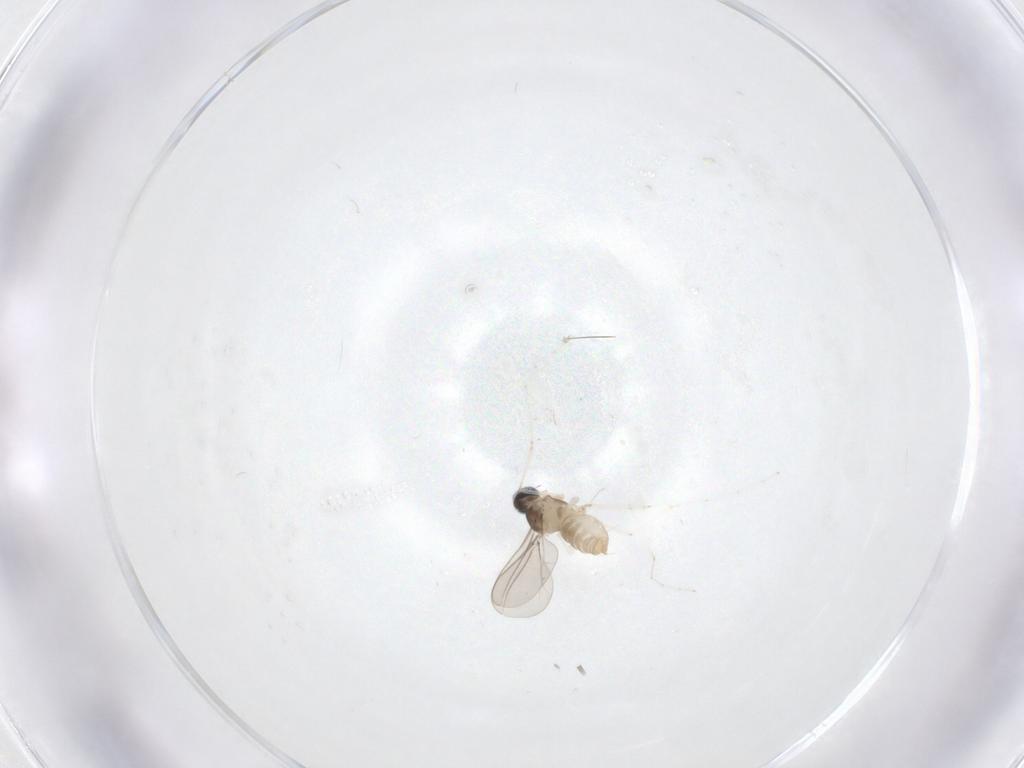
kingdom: Animalia
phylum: Arthropoda
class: Insecta
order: Diptera
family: Cecidomyiidae
